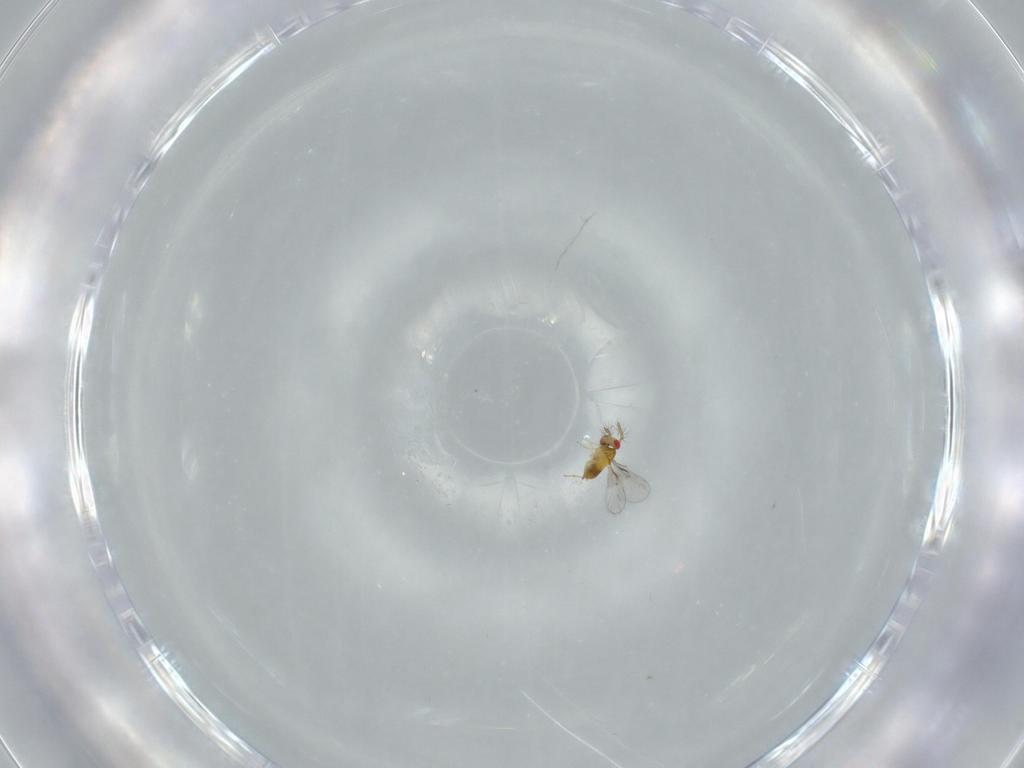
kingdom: Animalia
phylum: Arthropoda
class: Insecta
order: Hymenoptera
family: Trichogrammatidae
